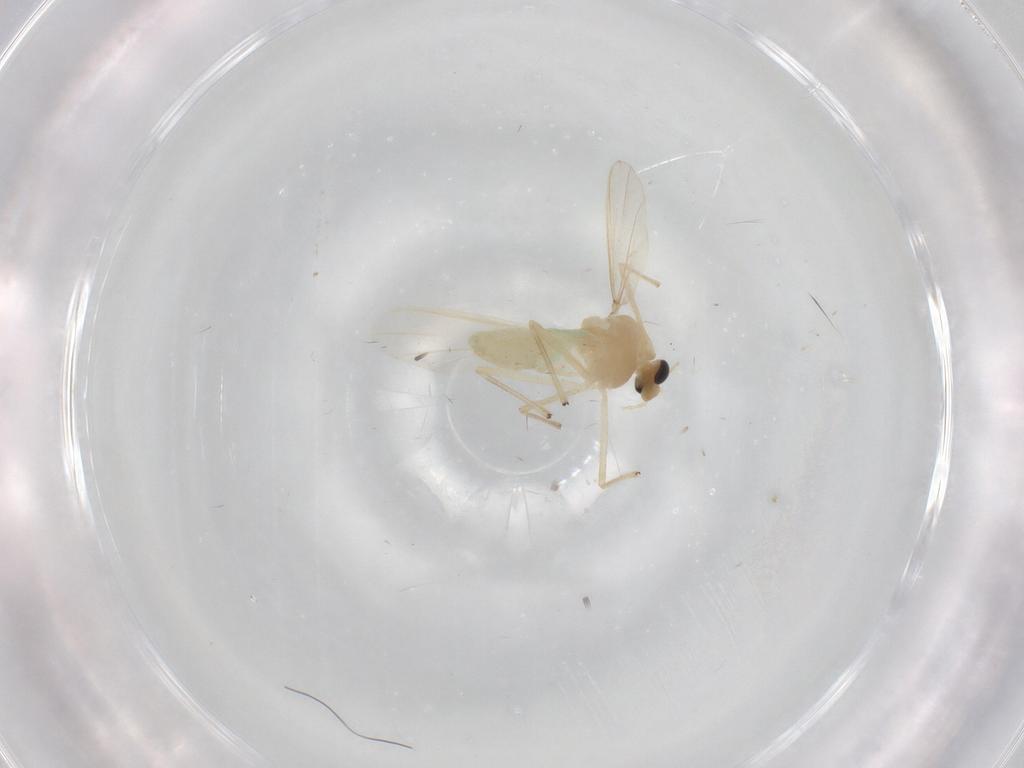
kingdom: Animalia
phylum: Arthropoda
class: Insecta
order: Diptera
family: Chironomidae
